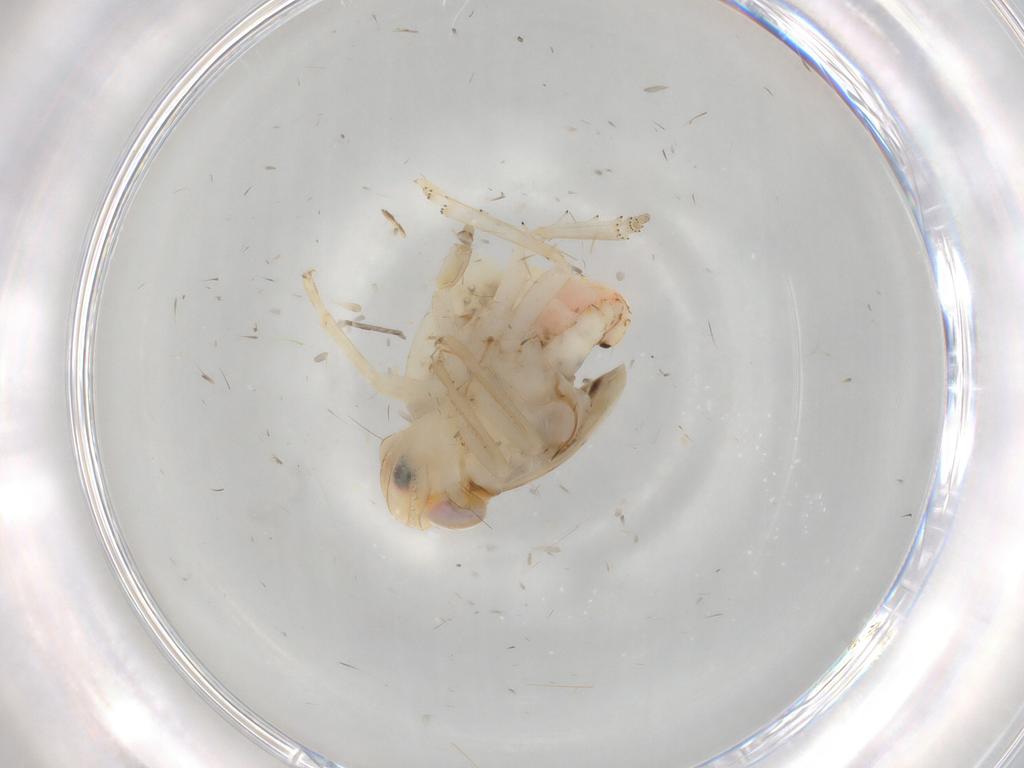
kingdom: Animalia
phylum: Arthropoda
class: Insecta
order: Hemiptera
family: Nogodinidae
